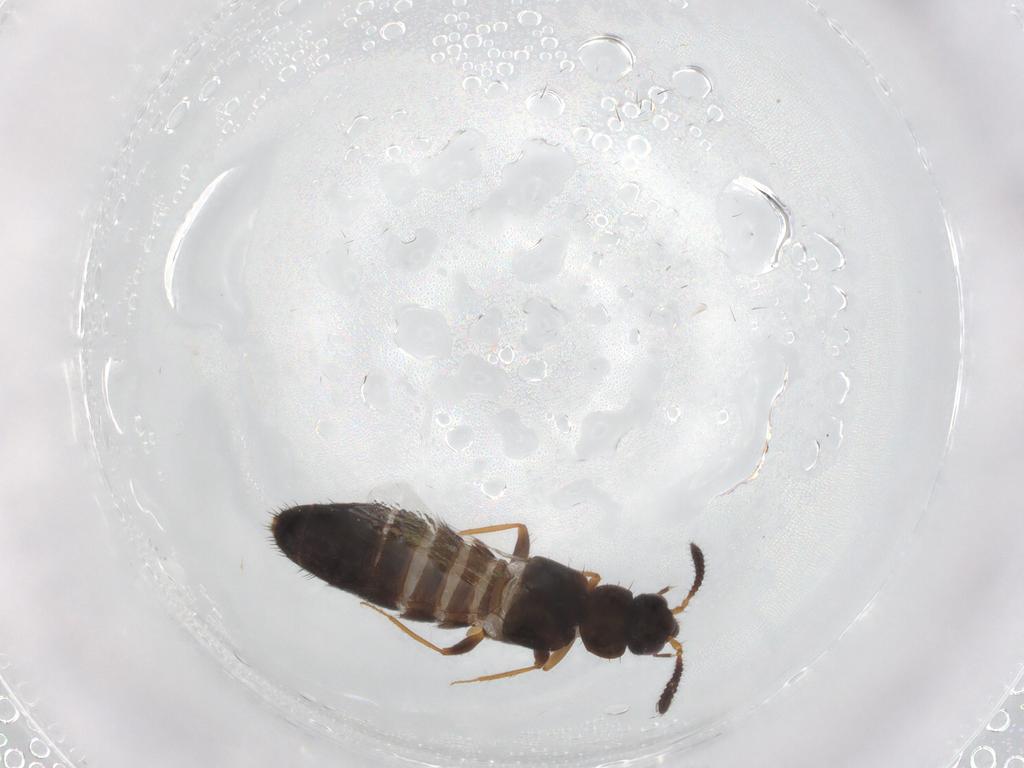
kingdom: Animalia
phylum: Arthropoda
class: Insecta
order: Coleoptera
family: Staphylinidae
